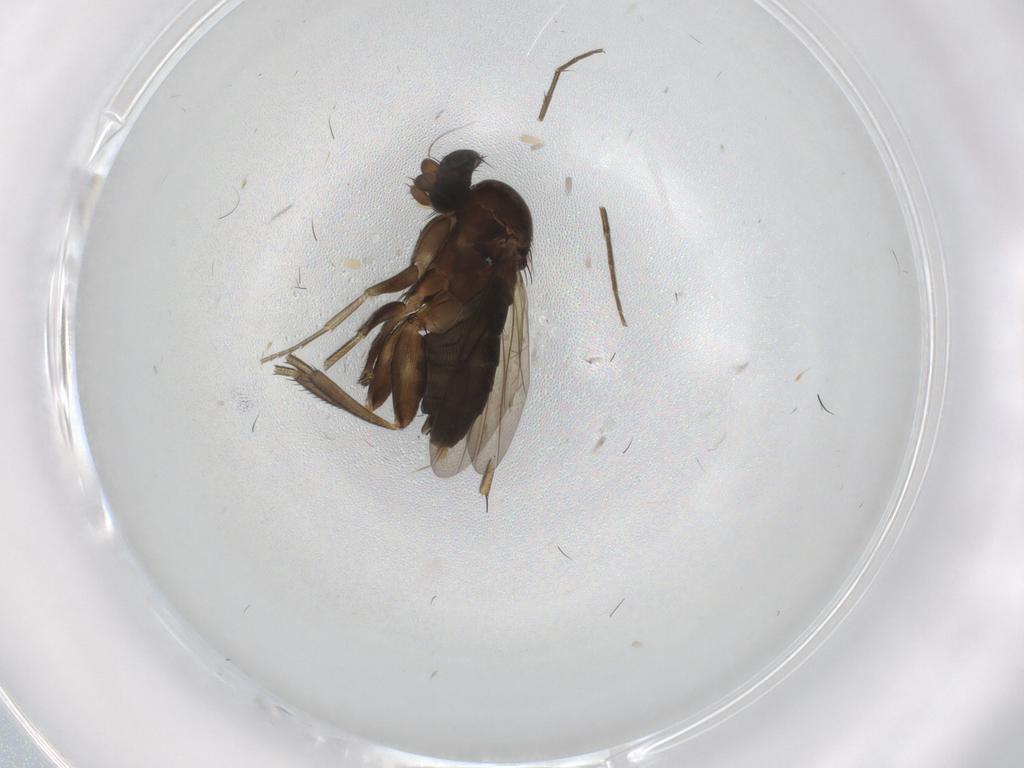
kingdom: Animalia
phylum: Arthropoda
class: Insecta
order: Diptera
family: Phoridae
